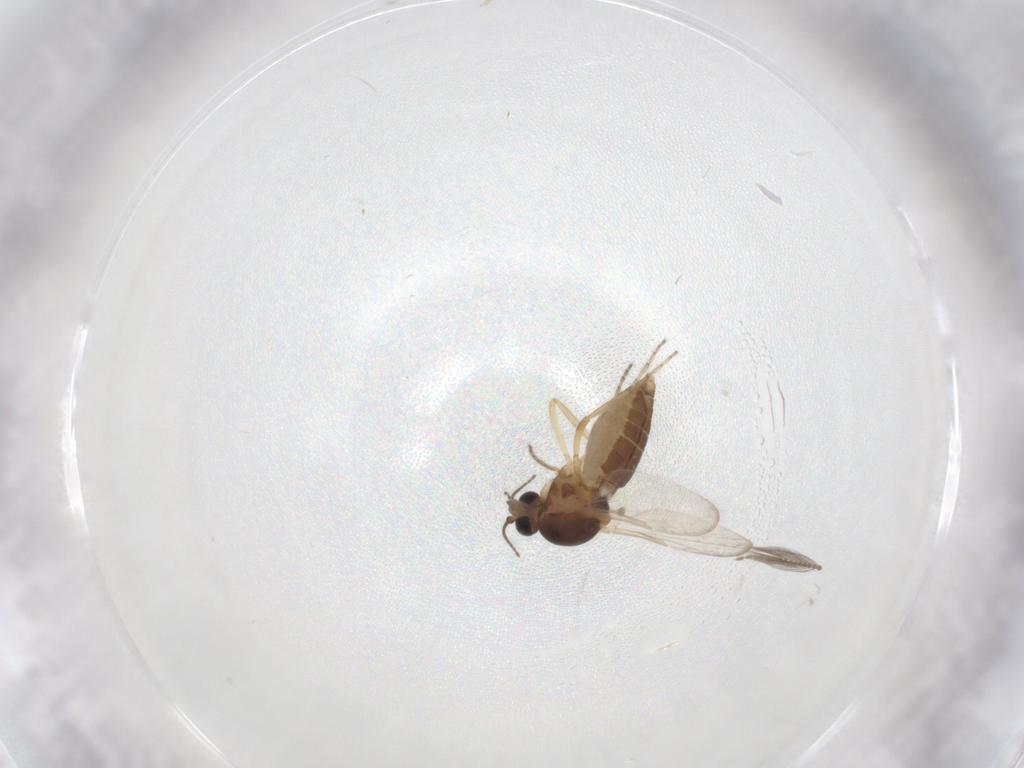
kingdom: Animalia
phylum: Arthropoda
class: Insecta
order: Diptera
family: Ceratopogonidae
